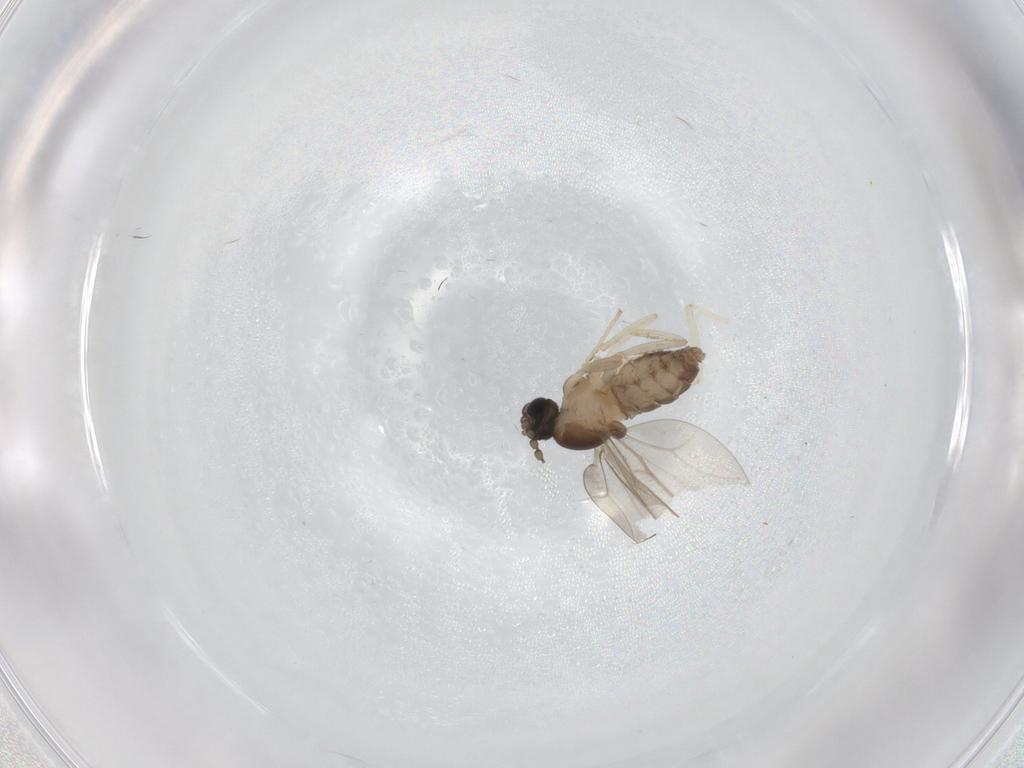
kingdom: Animalia
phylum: Arthropoda
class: Insecta
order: Diptera
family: Cecidomyiidae
